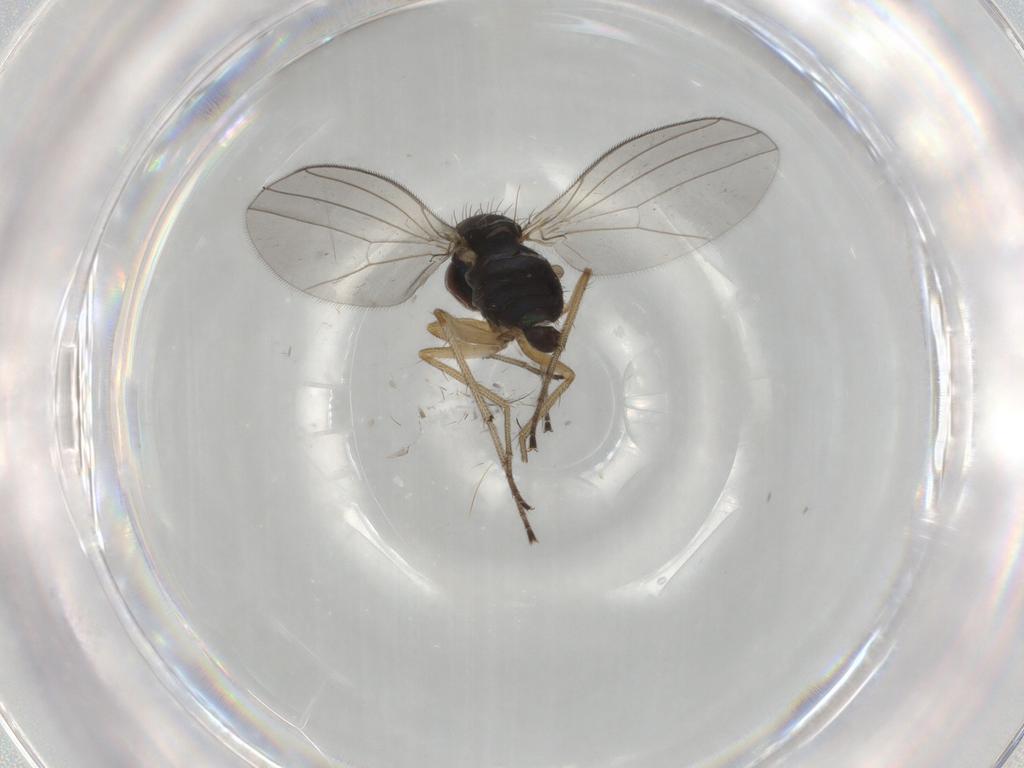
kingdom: Animalia
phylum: Arthropoda
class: Insecta
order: Diptera
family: Dolichopodidae
